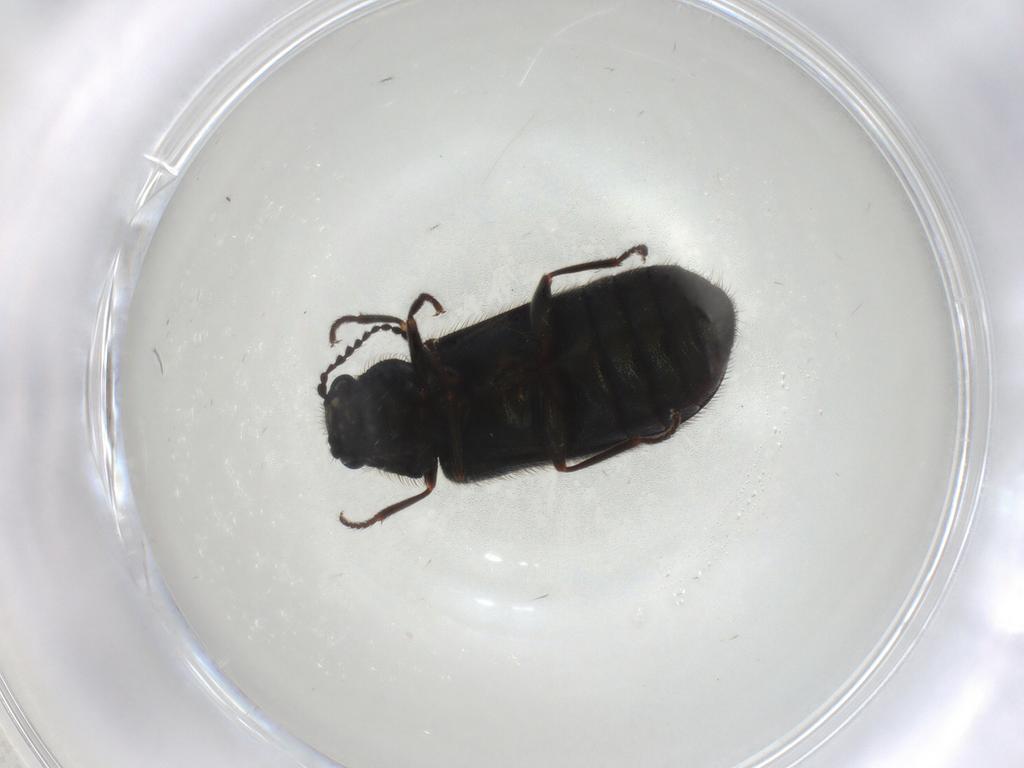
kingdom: Animalia
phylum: Arthropoda
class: Insecta
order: Coleoptera
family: Melyridae
